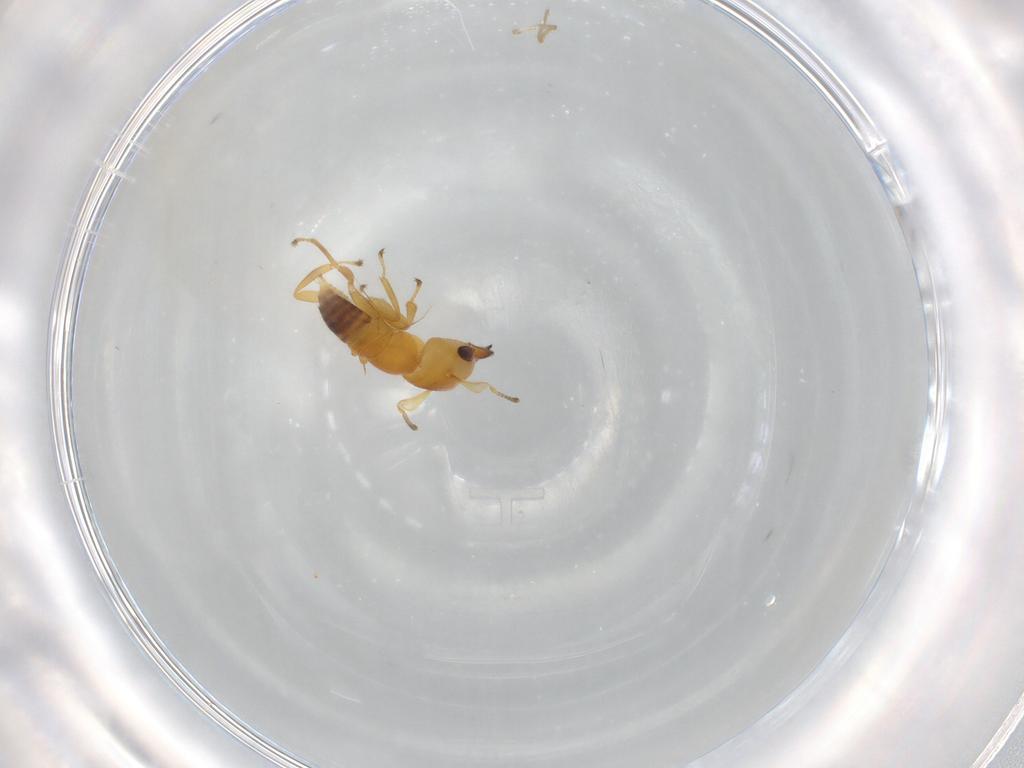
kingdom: Animalia
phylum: Arthropoda
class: Insecta
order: Hymenoptera
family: Pteromalidae
